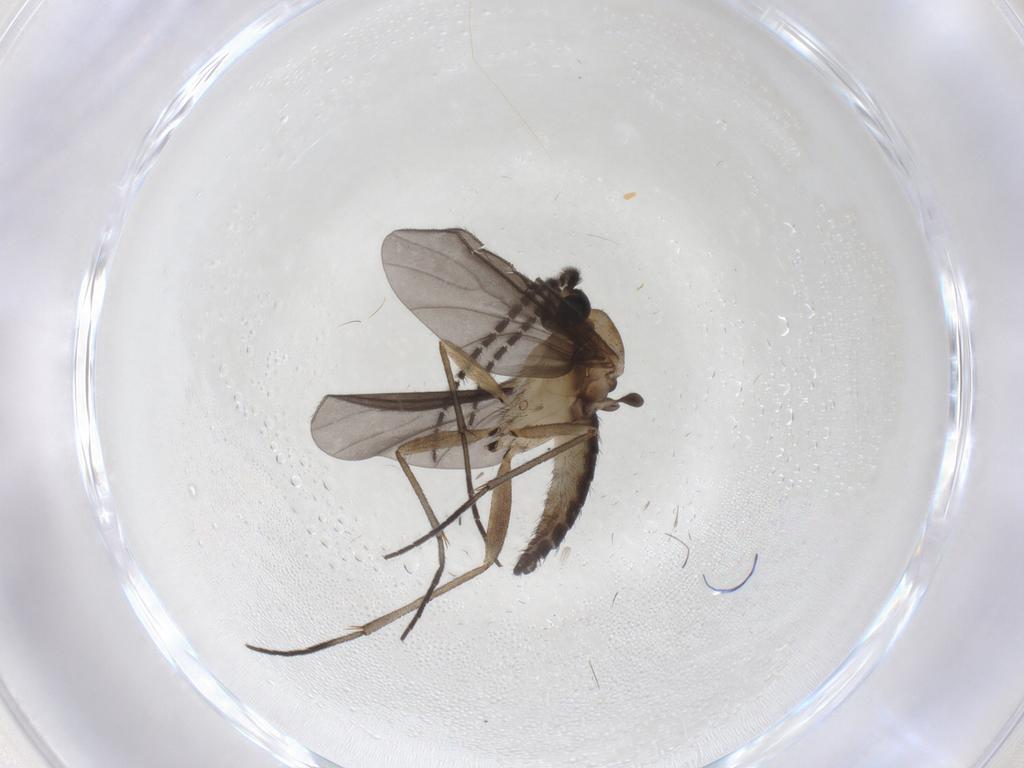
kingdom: Animalia
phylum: Arthropoda
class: Insecta
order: Diptera
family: Sciaridae
